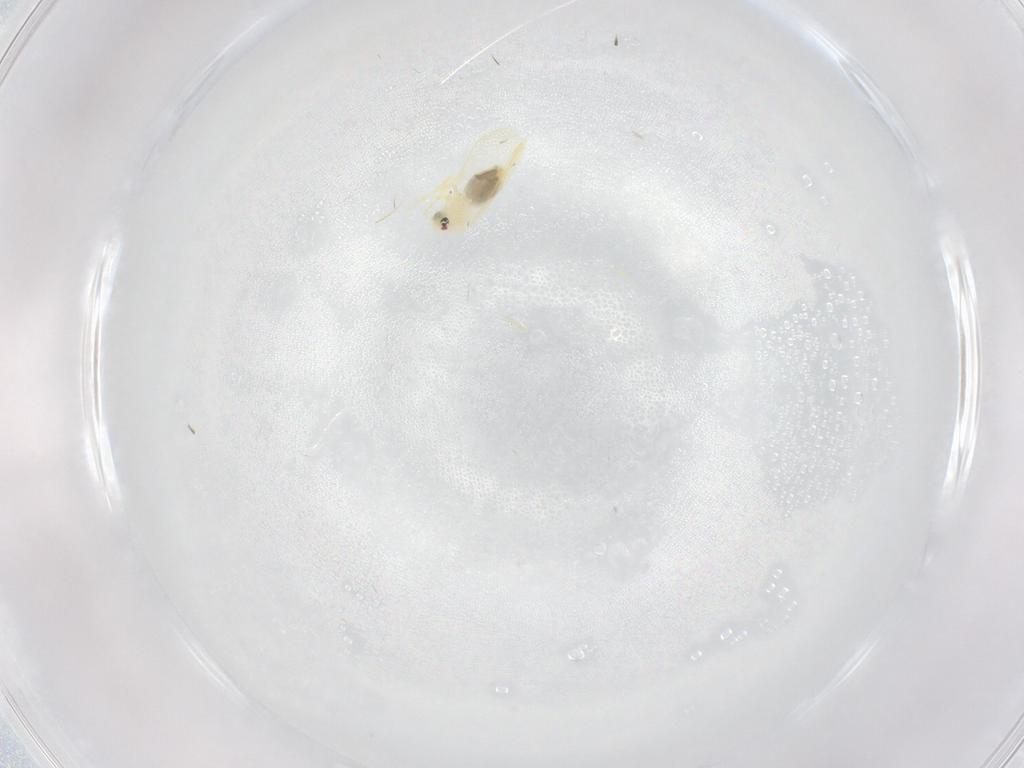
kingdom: Animalia
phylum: Arthropoda
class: Insecta
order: Hemiptera
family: Aleyrodidae
